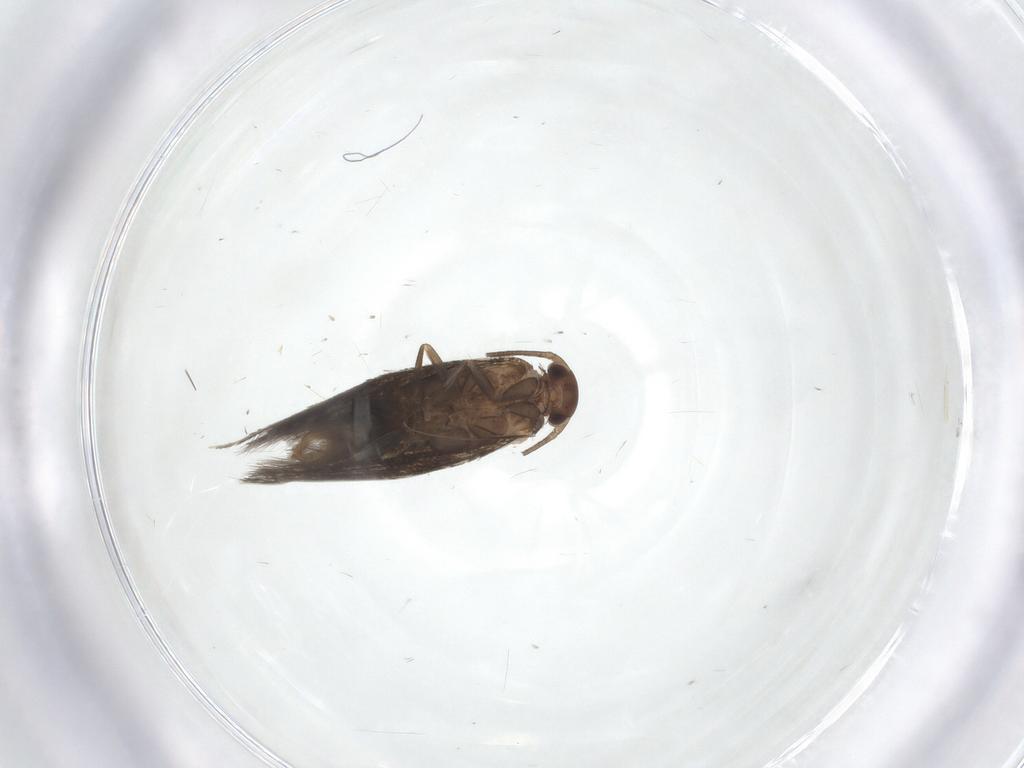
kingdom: Animalia
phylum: Arthropoda
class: Insecta
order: Lepidoptera
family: Elachistidae
